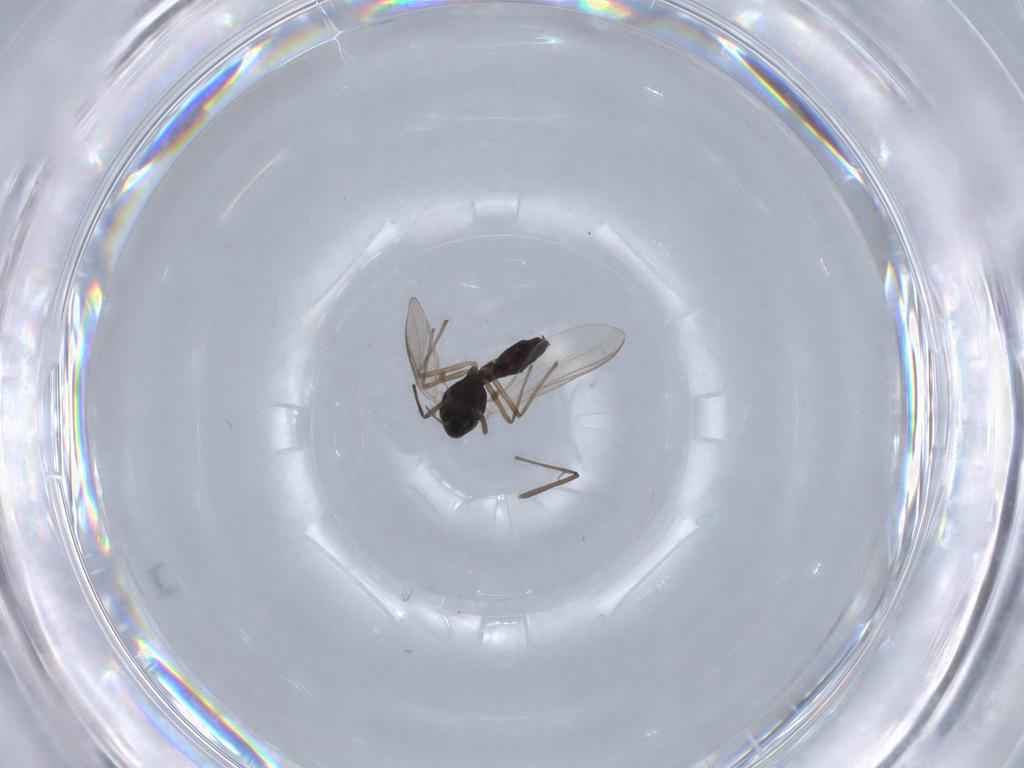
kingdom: Animalia
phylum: Arthropoda
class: Insecta
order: Diptera
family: Chironomidae
